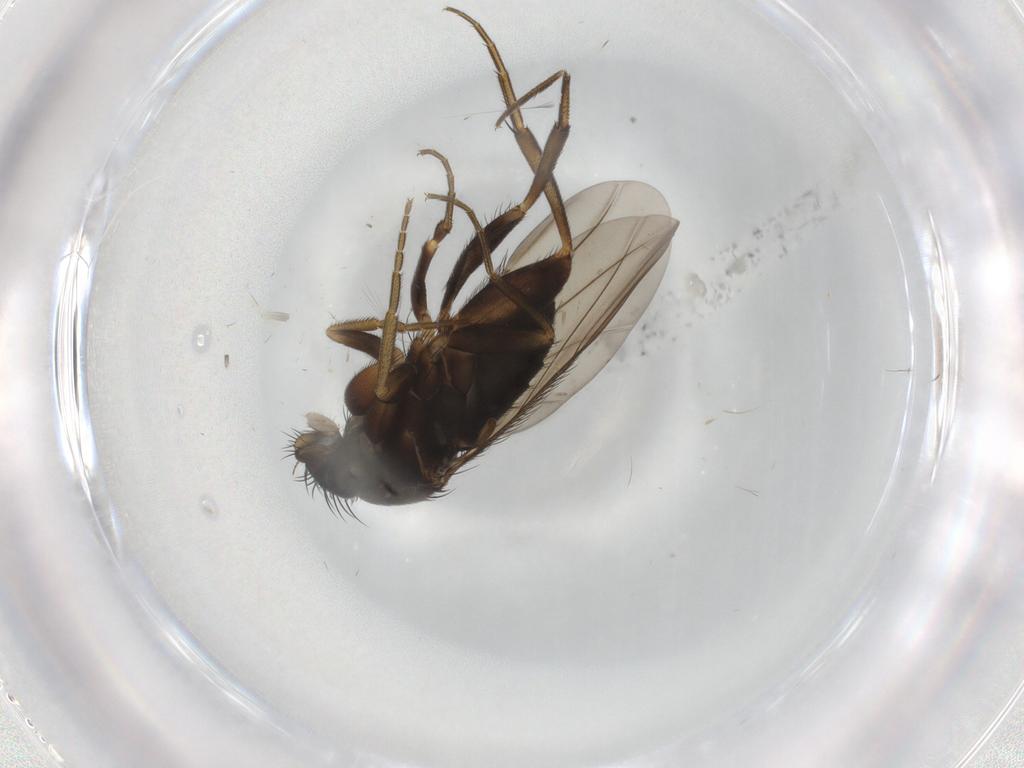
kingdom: Animalia
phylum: Arthropoda
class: Insecta
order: Diptera
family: Phoridae
